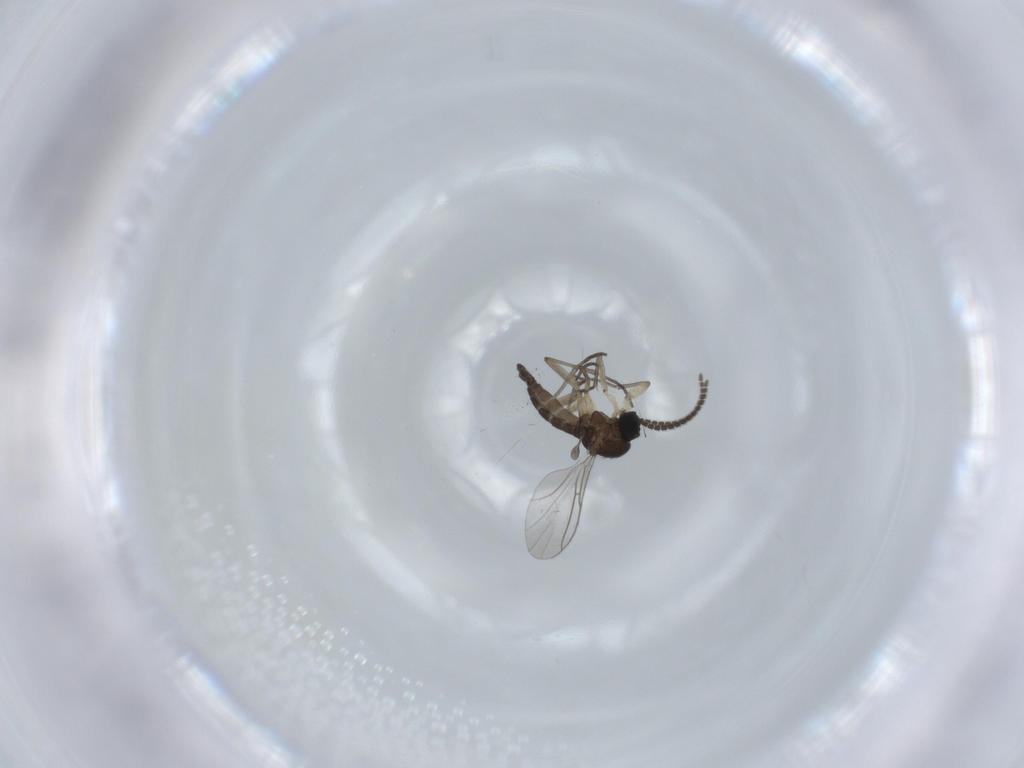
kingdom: Animalia
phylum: Arthropoda
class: Insecta
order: Diptera
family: Sciaridae
